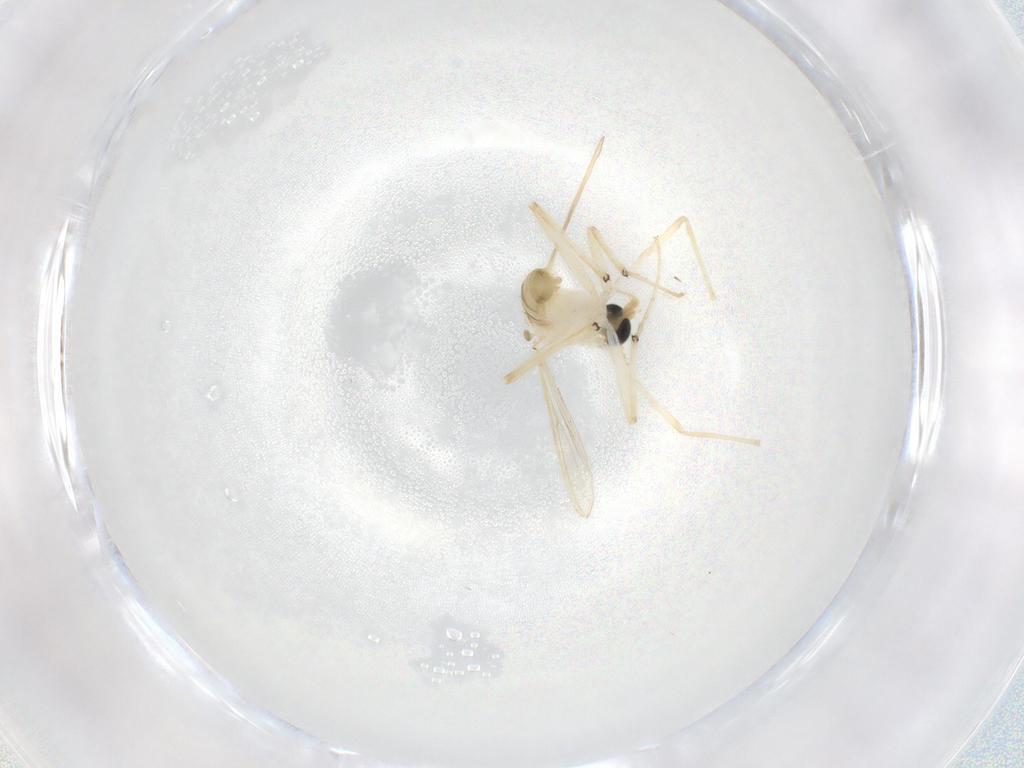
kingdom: Animalia
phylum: Arthropoda
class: Insecta
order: Diptera
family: Chironomidae
